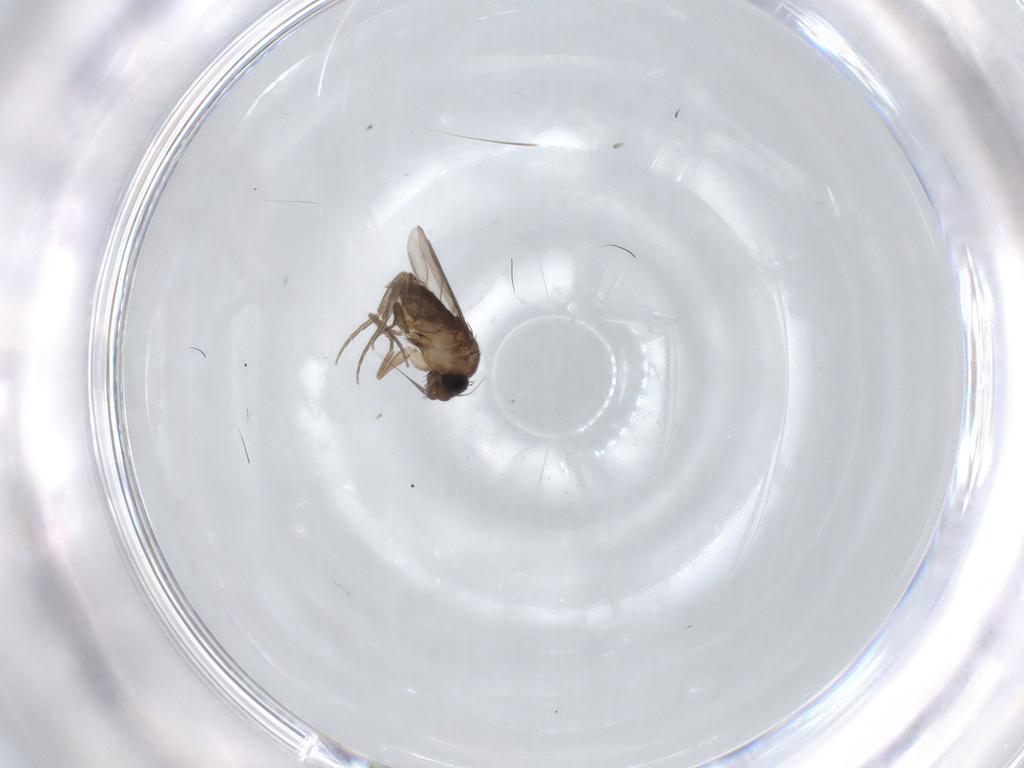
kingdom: Animalia
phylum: Arthropoda
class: Insecta
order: Diptera
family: Phoridae
